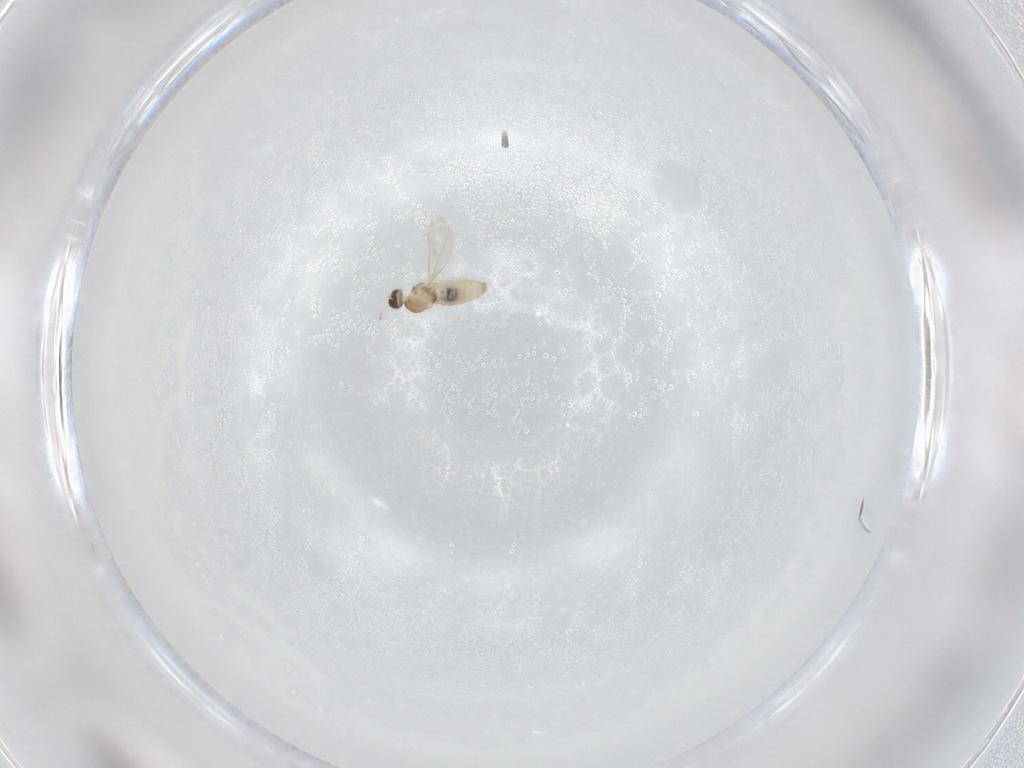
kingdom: Animalia
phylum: Arthropoda
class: Insecta
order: Diptera
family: Cecidomyiidae
